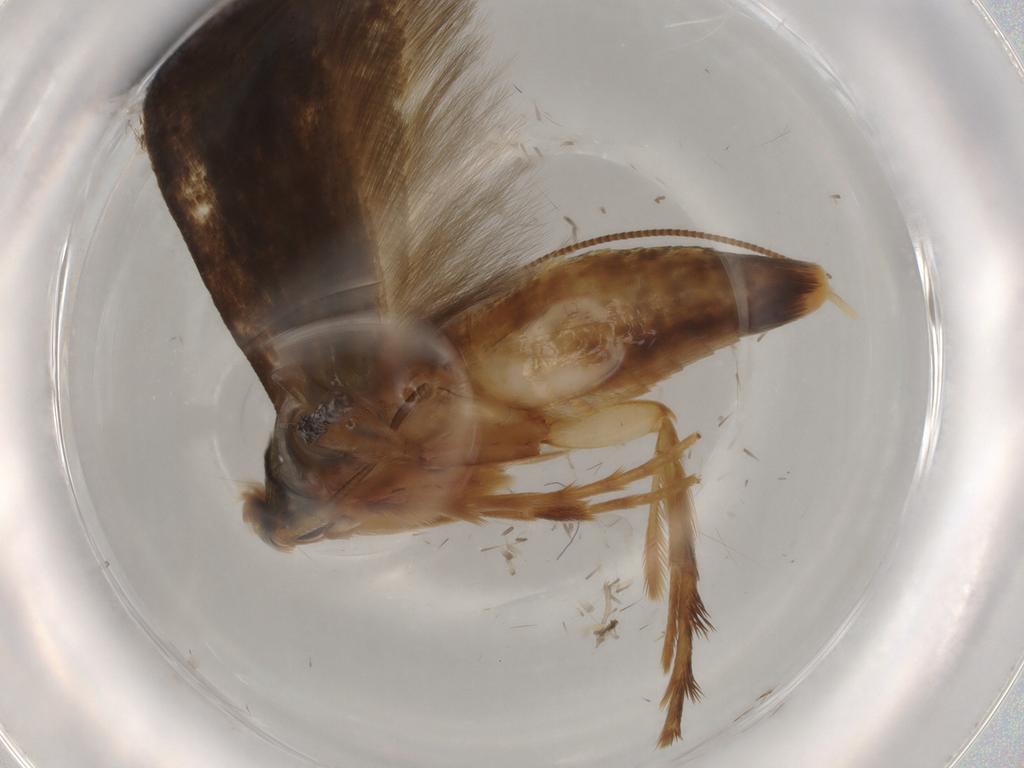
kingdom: Animalia
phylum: Arthropoda
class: Insecta
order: Lepidoptera
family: Tineidae
